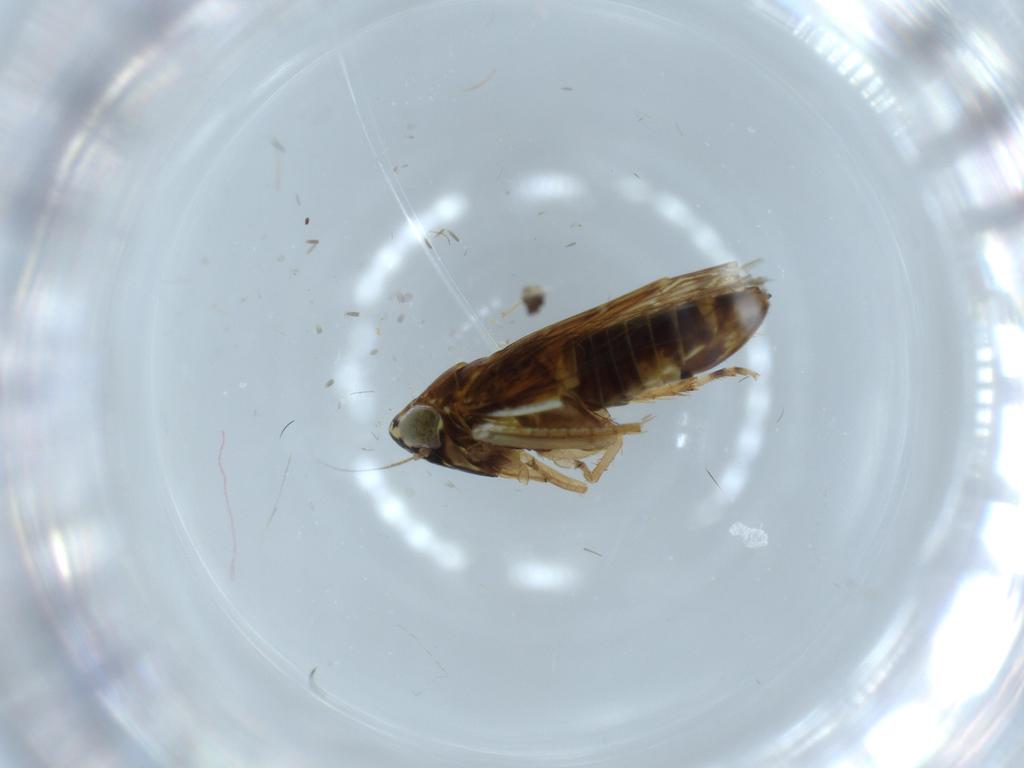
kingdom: Animalia
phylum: Arthropoda
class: Insecta
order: Hemiptera
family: Cicadellidae
